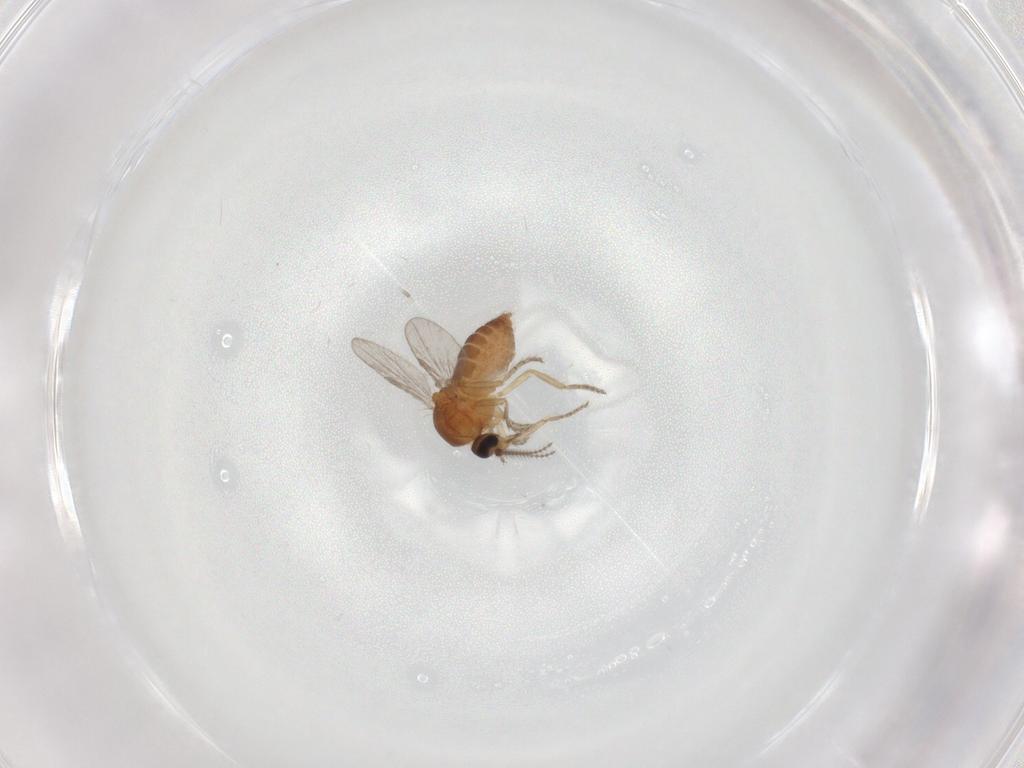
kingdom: Animalia
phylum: Arthropoda
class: Insecta
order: Diptera
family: Ceratopogonidae
